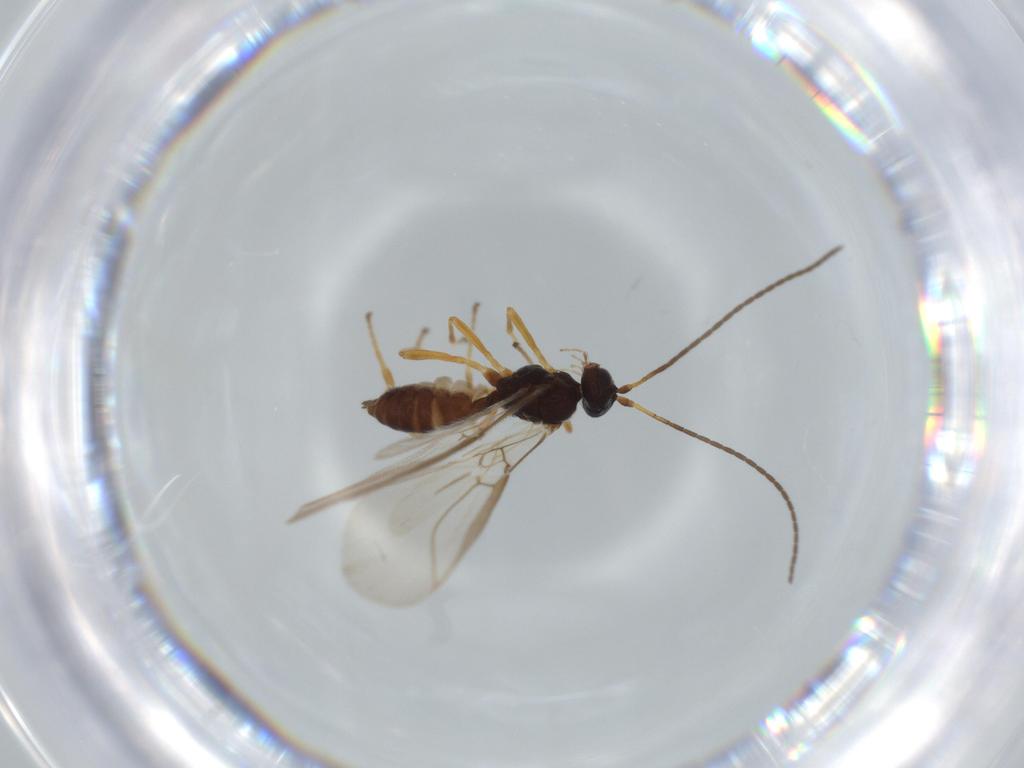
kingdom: Animalia
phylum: Arthropoda
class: Insecta
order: Hymenoptera
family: Braconidae
